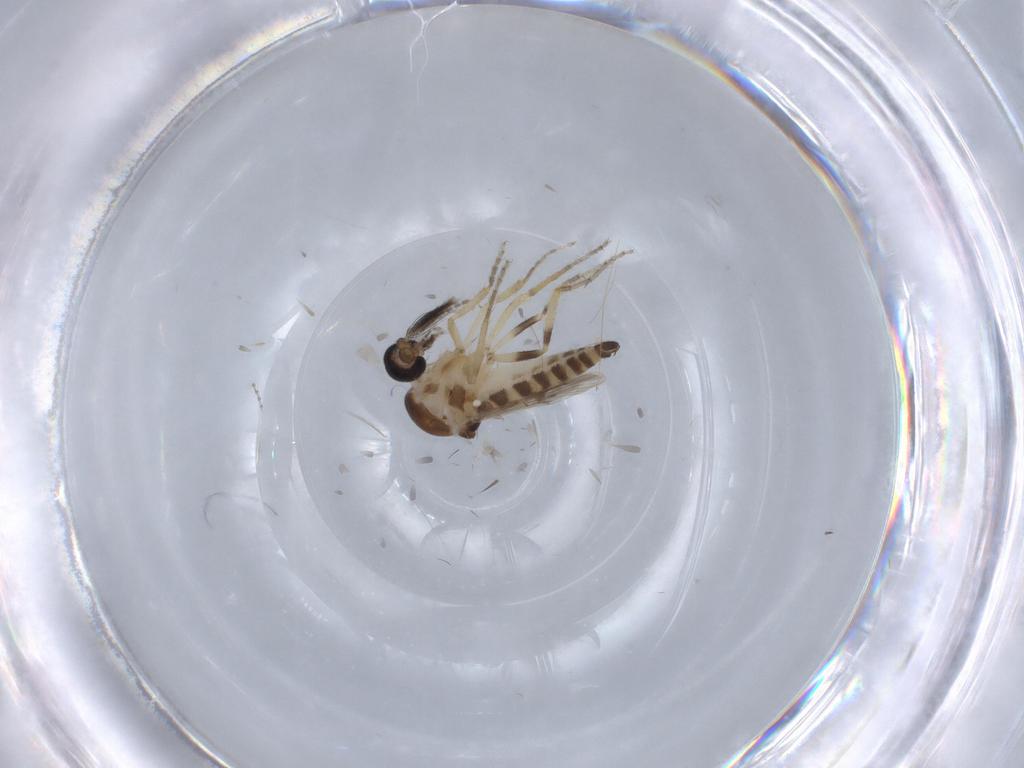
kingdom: Animalia
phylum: Arthropoda
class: Insecta
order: Diptera
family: Ceratopogonidae
